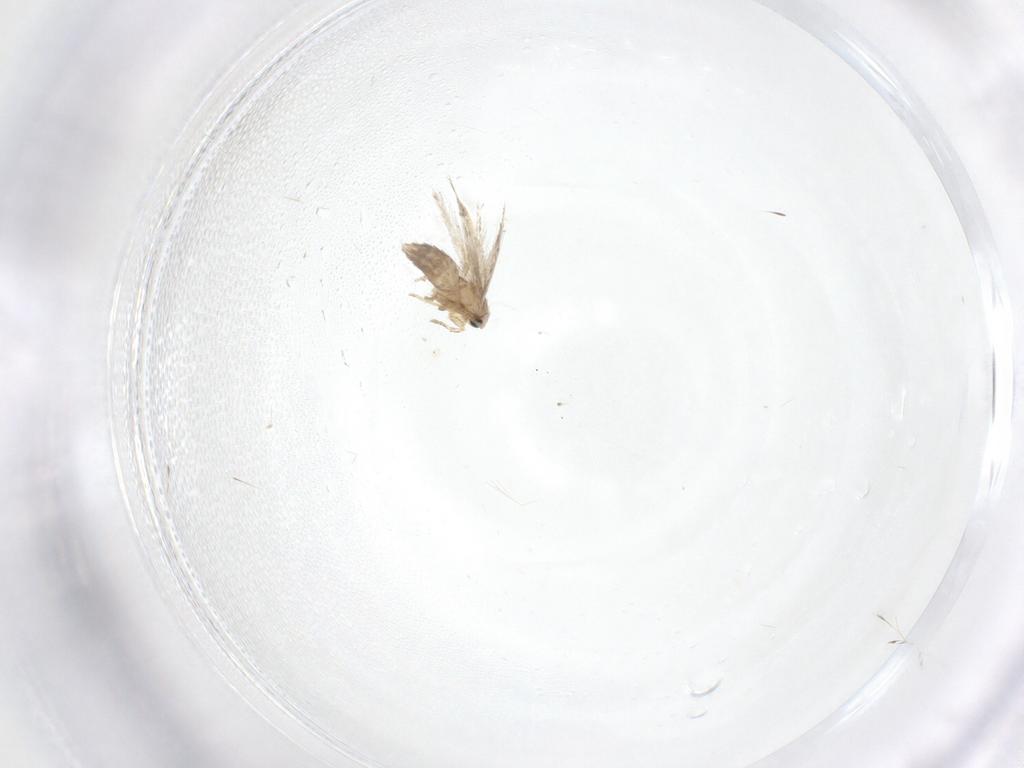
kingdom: Animalia
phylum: Arthropoda
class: Insecta
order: Lepidoptera
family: Nepticulidae
